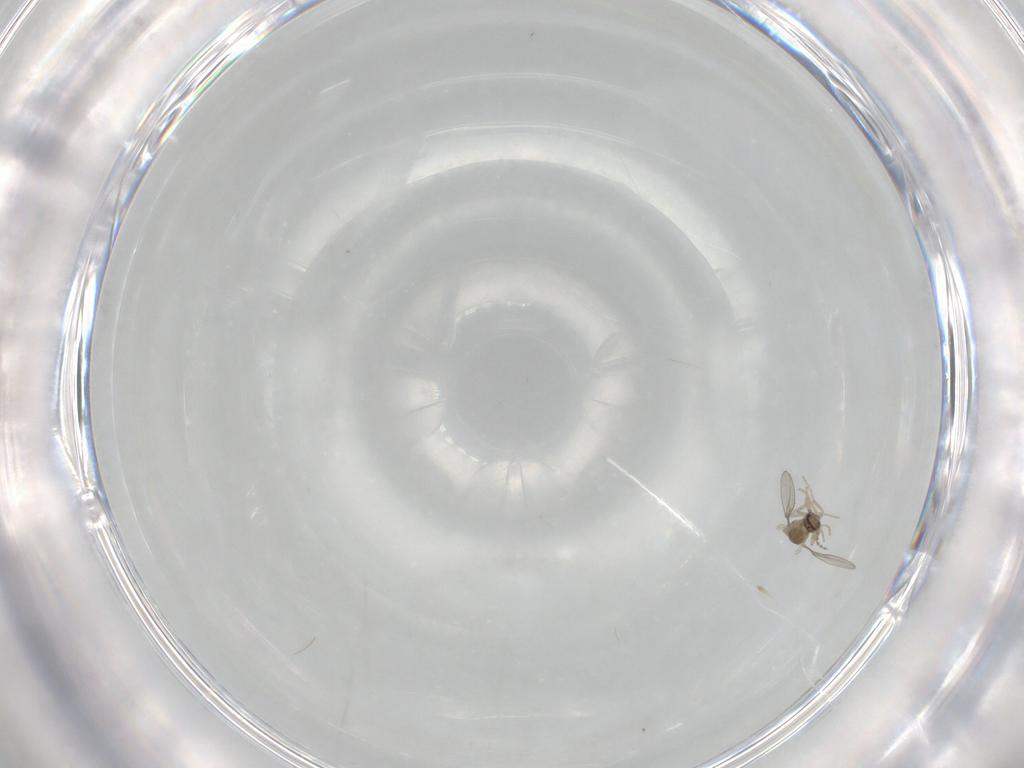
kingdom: Animalia
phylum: Arthropoda
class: Insecta
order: Diptera
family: Cecidomyiidae
